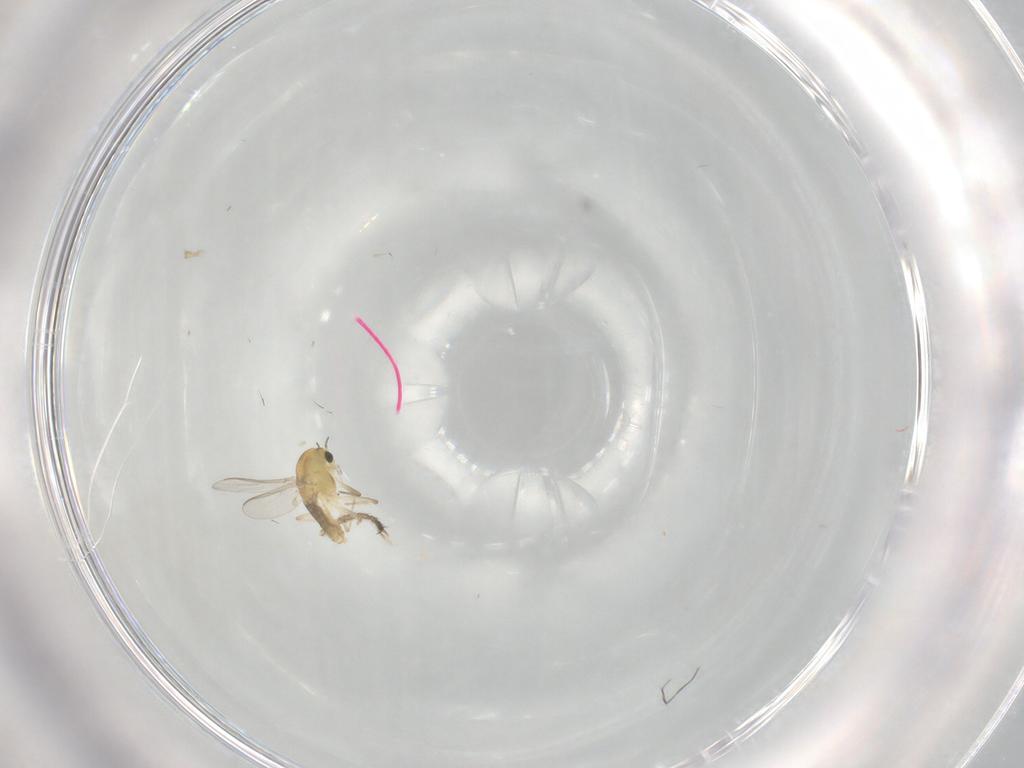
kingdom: Animalia
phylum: Arthropoda
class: Insecta
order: Diptera
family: Chironomidae
